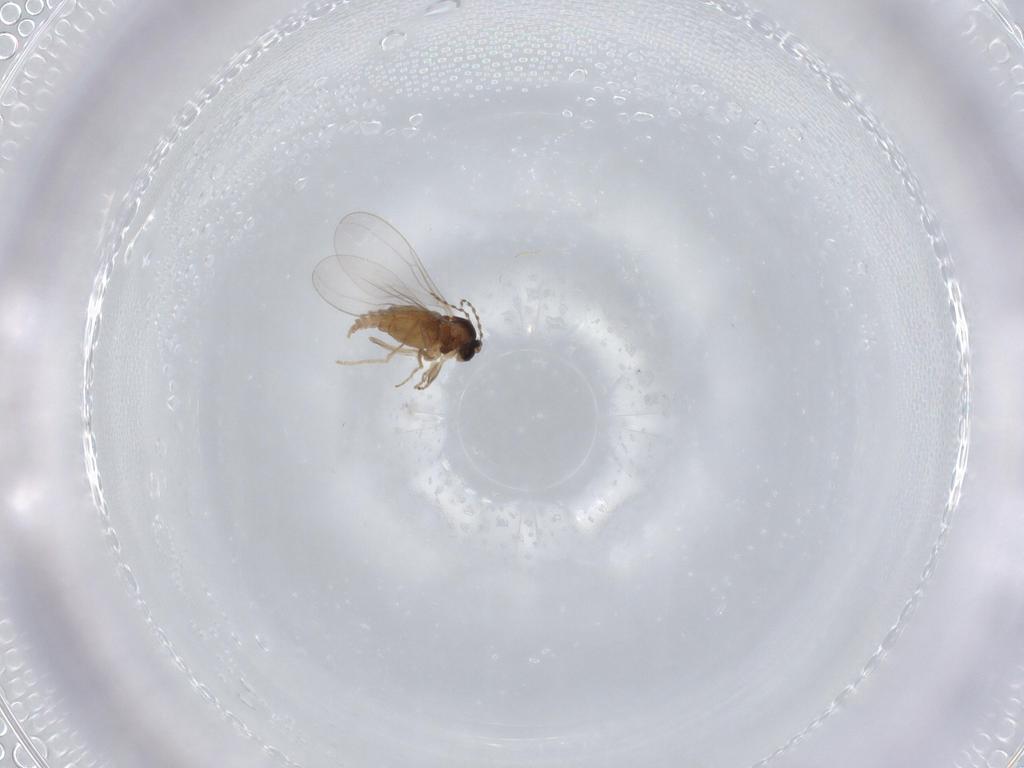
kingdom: Animalia
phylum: Arthropoda
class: Insecta
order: Diptera
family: Cecidomyiidae
